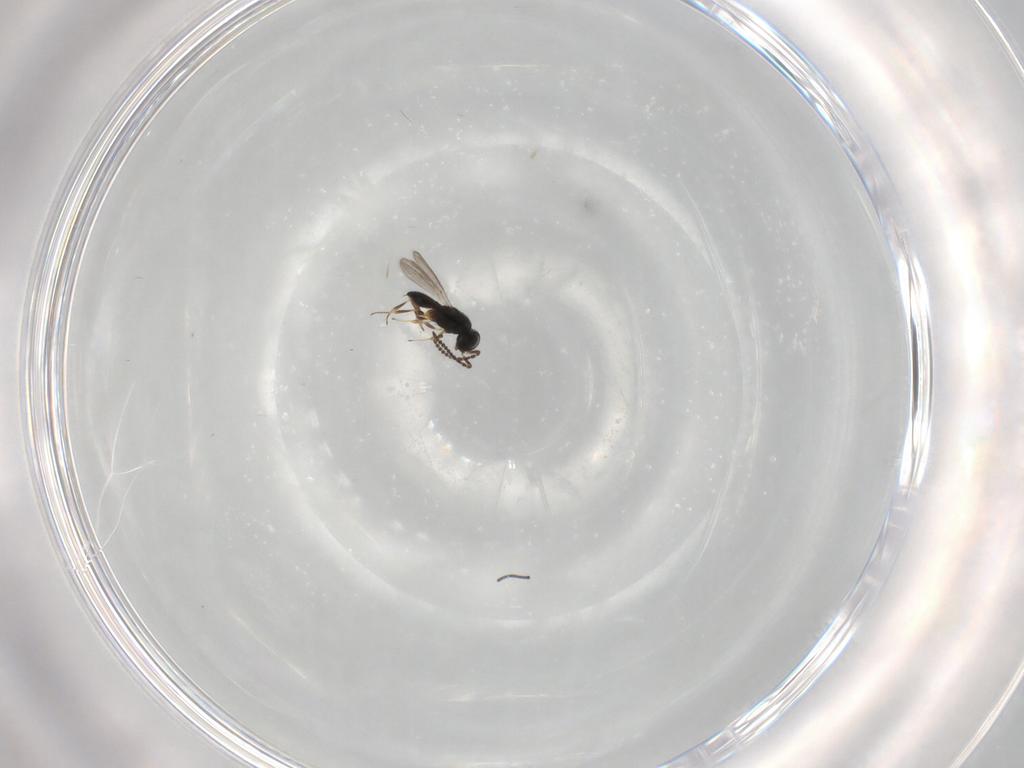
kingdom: Animalia
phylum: Arthropoda
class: Insecta
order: Hymenoptera
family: Scelionidae
